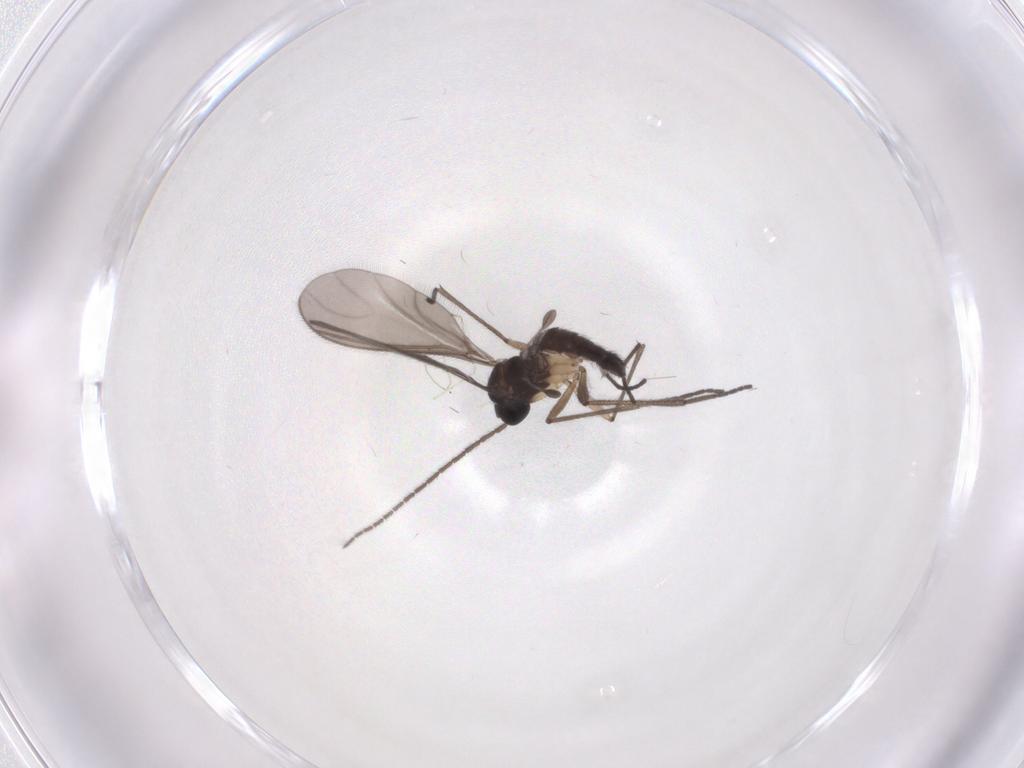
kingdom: Animalia
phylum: Arthropoda
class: Insecta
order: Diptera
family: Sciaridae
